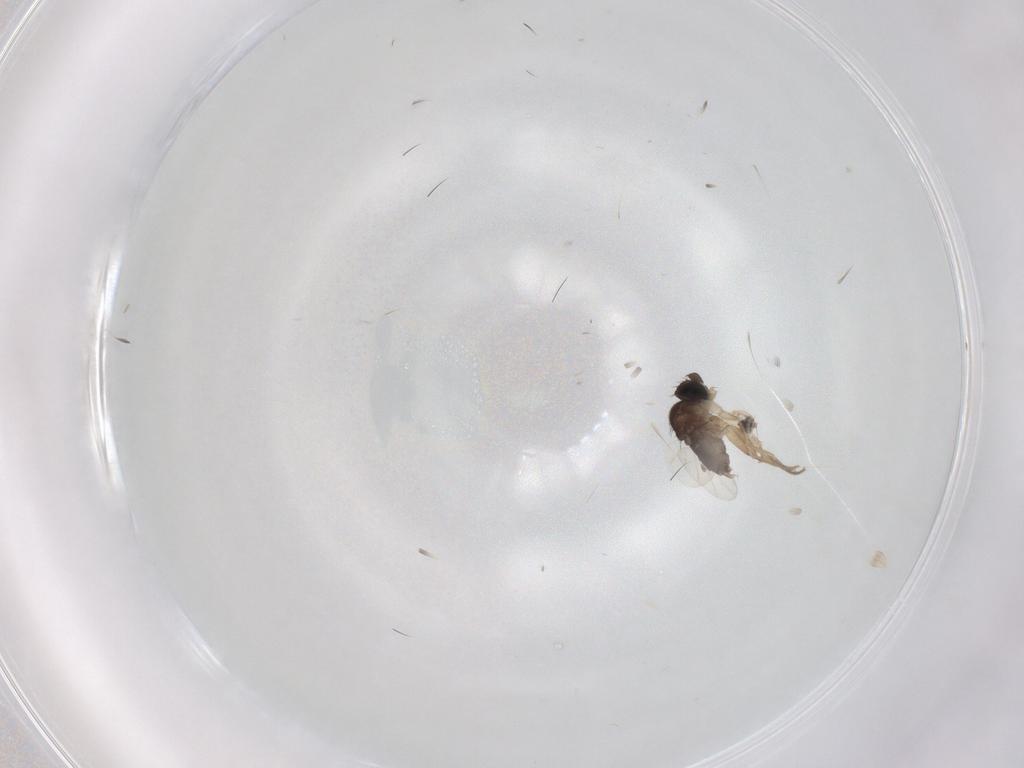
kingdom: Animalia
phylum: Arthropoda
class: Insecta
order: Diptera
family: Phoridae
